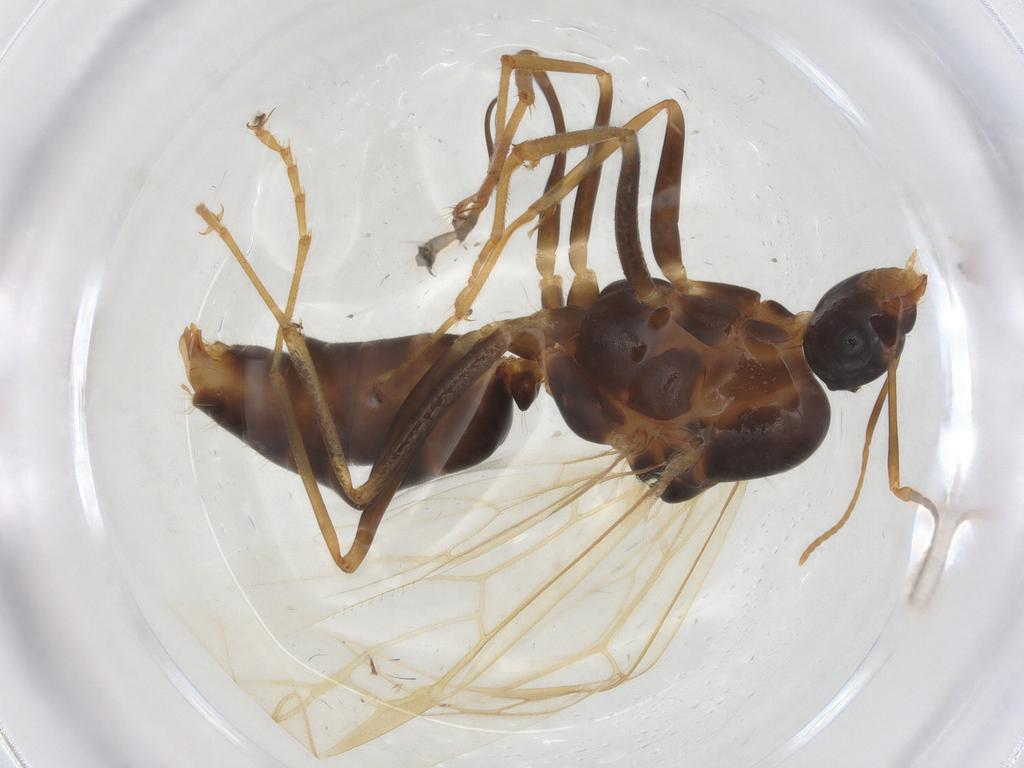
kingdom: Animalia
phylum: Arthropoda
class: Insecta
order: Hymenoptera
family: Formicidae
